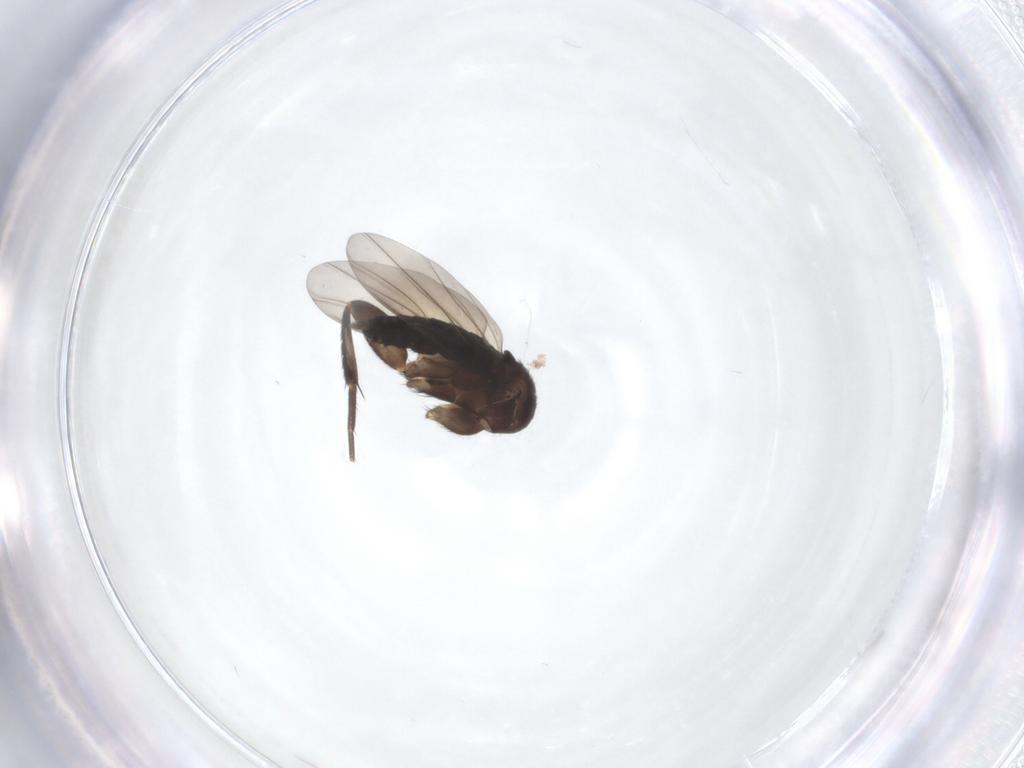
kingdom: Animalia
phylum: Arthropoda
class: Insecta
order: Diptera
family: Phoridae
